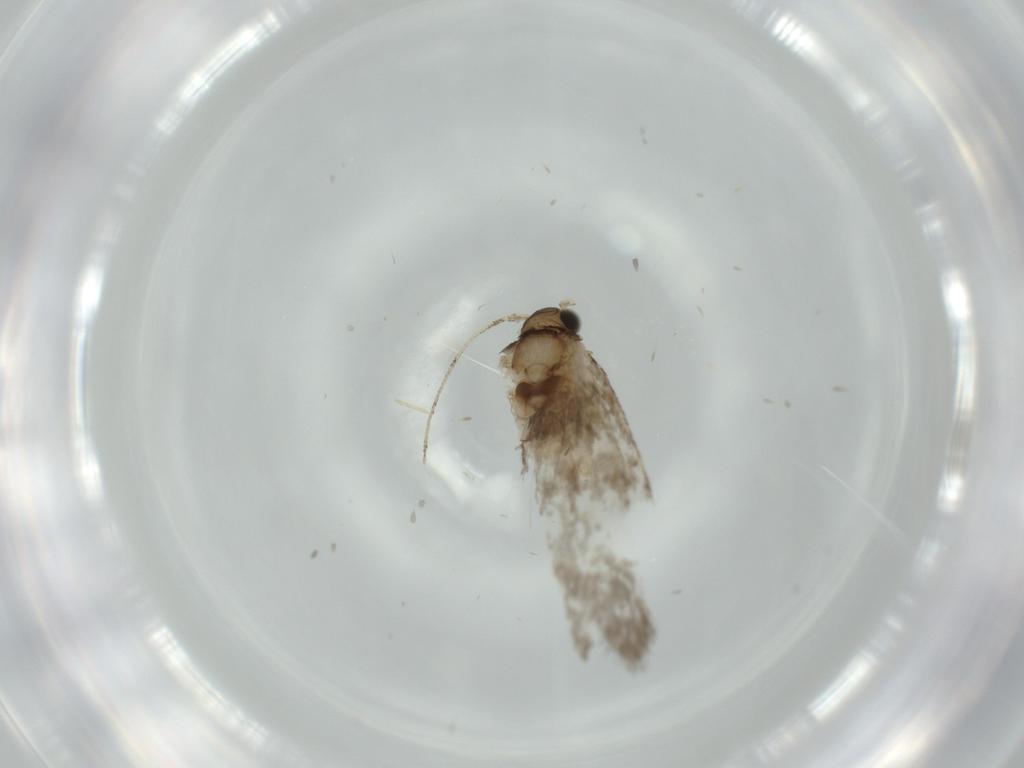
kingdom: Animalia
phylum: Arthropoda
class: Insecta
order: Lepidoptera
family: Tineidae
